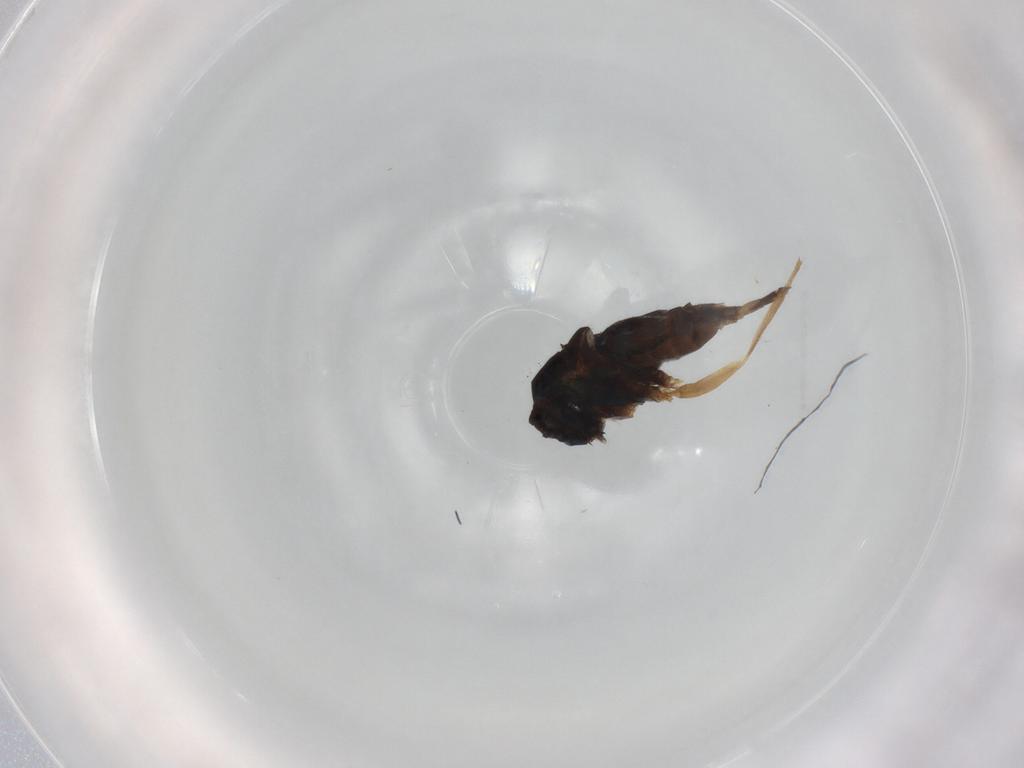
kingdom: Animalia
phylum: Arthropoda
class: Insecta
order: Diptera
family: Dolichopodidae
